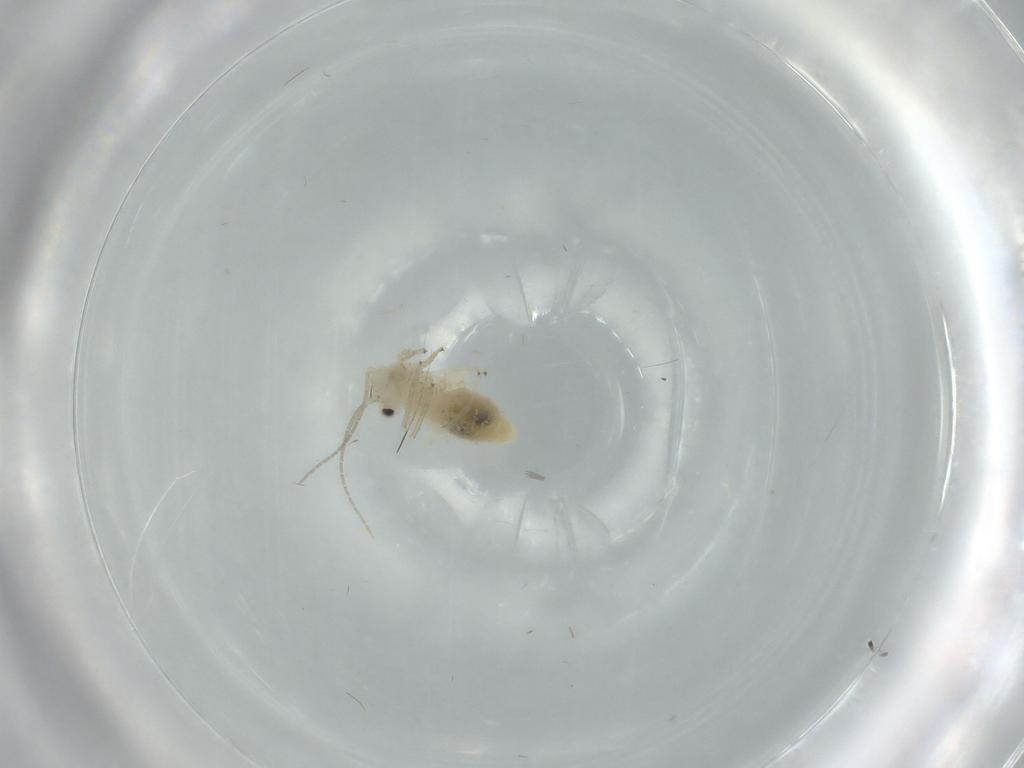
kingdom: Animalia
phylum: Arthropoda
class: Insecta
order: Psocodea
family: Caeciliusidae
